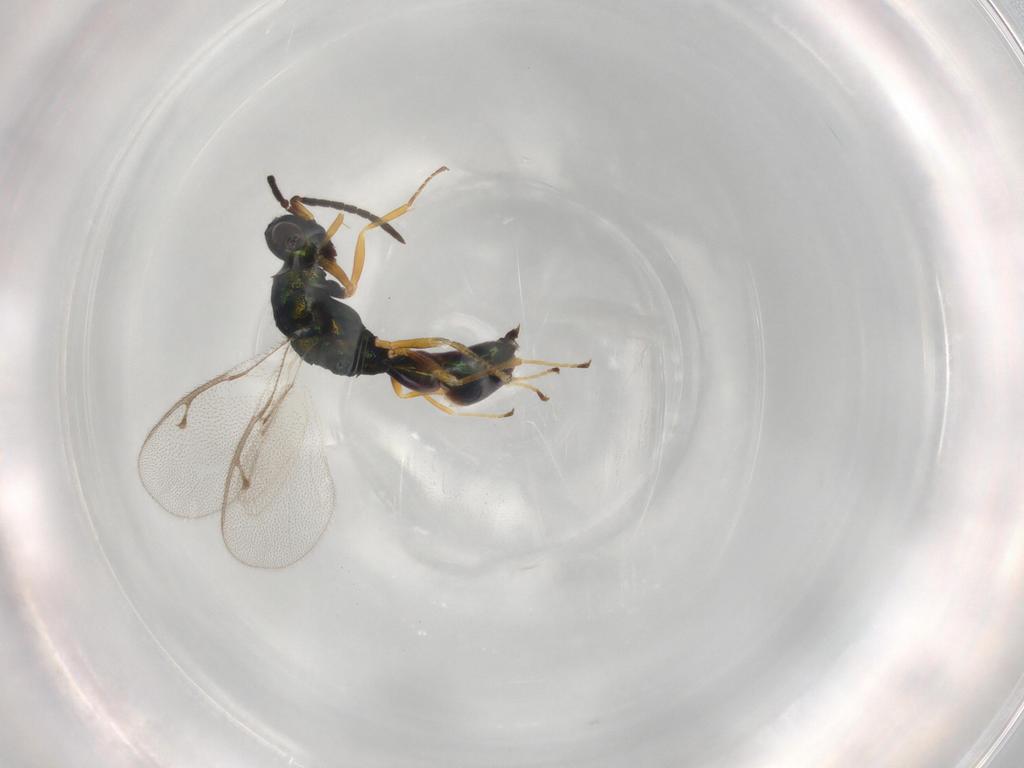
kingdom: Animalia
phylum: Arthropoda
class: Insecta
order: Hymenoptera
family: Pteromalidae
